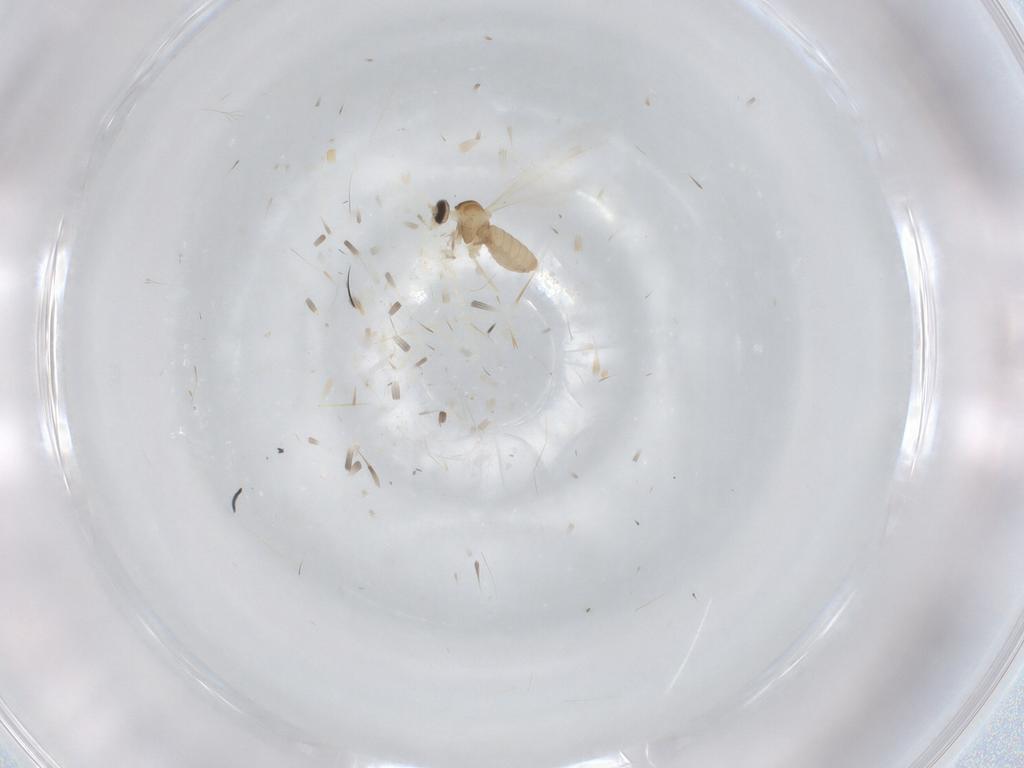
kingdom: Animalia
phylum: Arthropoda
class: Insecta
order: Diptera
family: Cecidomyiidae
